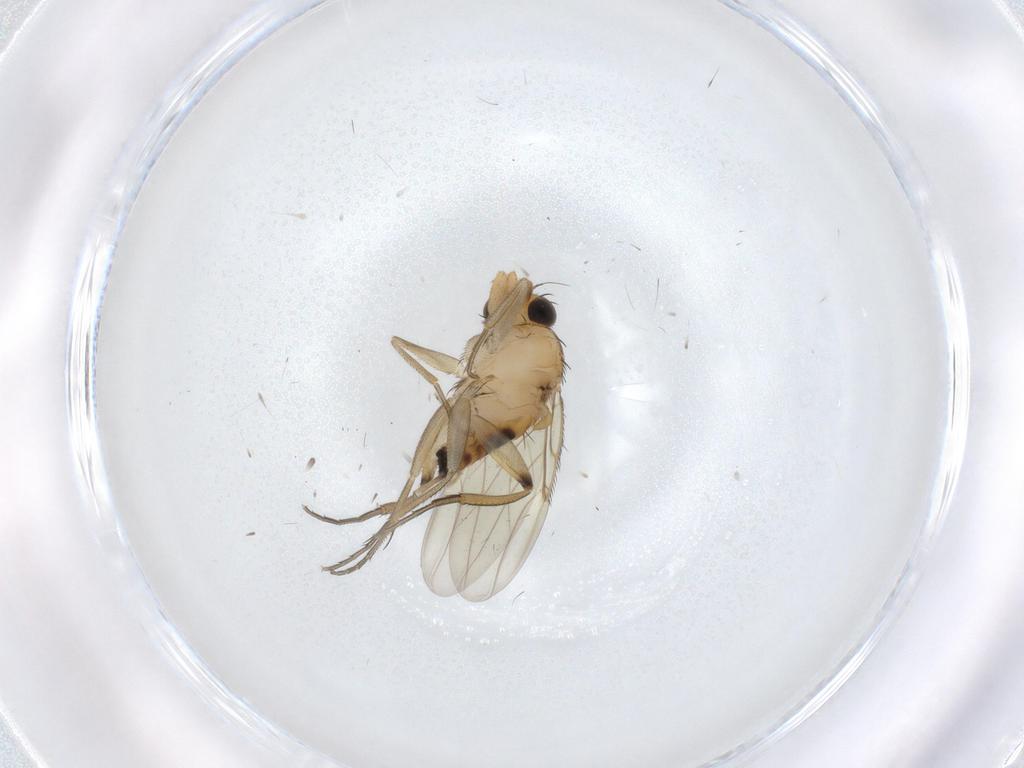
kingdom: Animalia
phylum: Arthropoda
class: Insecta
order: Diptera
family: Phoridae
